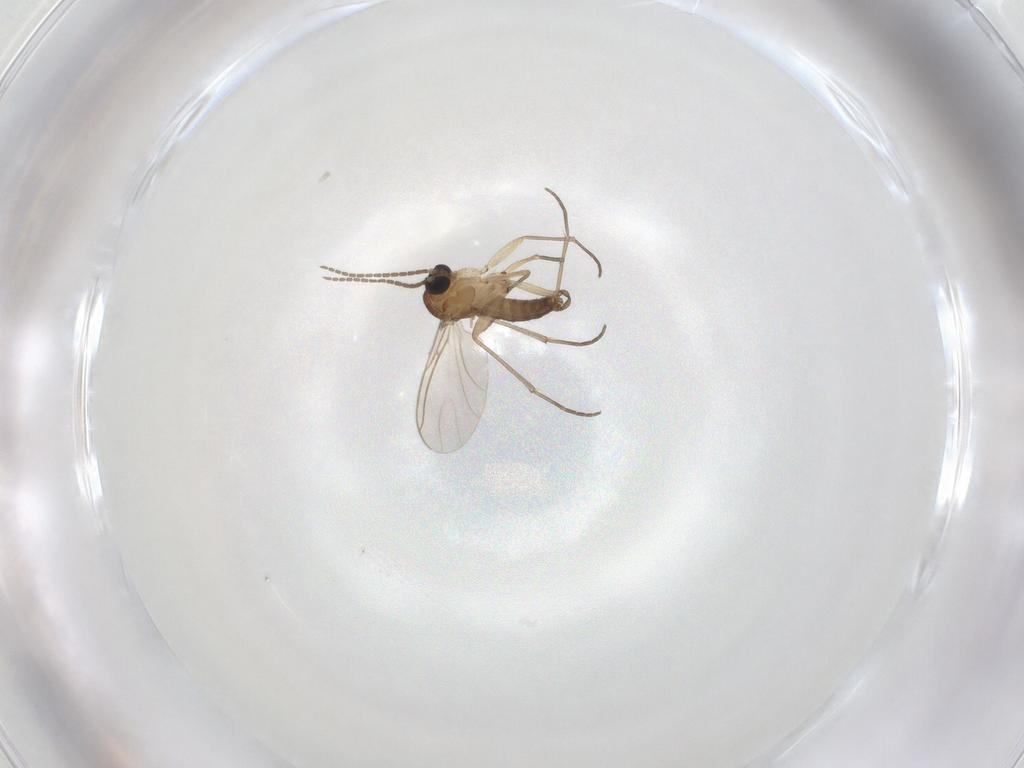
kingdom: Animalia
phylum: Arthropoda
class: Insecta
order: Diptera
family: Sciaridae
